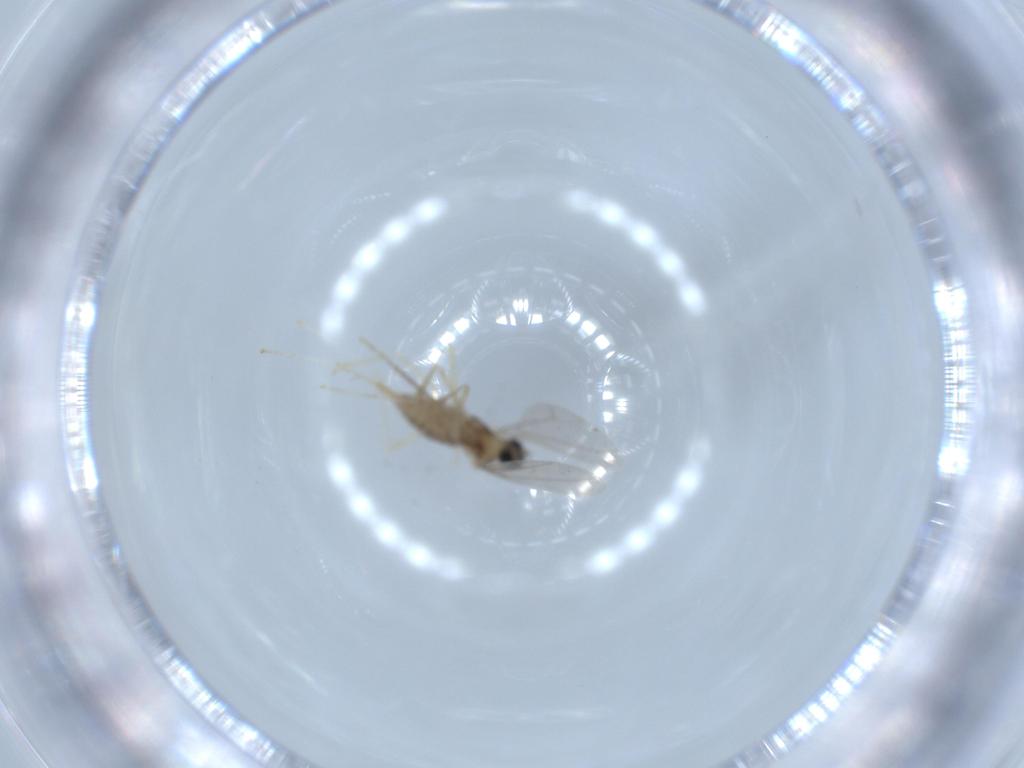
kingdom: Animalia
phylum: Arthropoda
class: Insecta
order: Diptera
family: Cecidomyiidae
